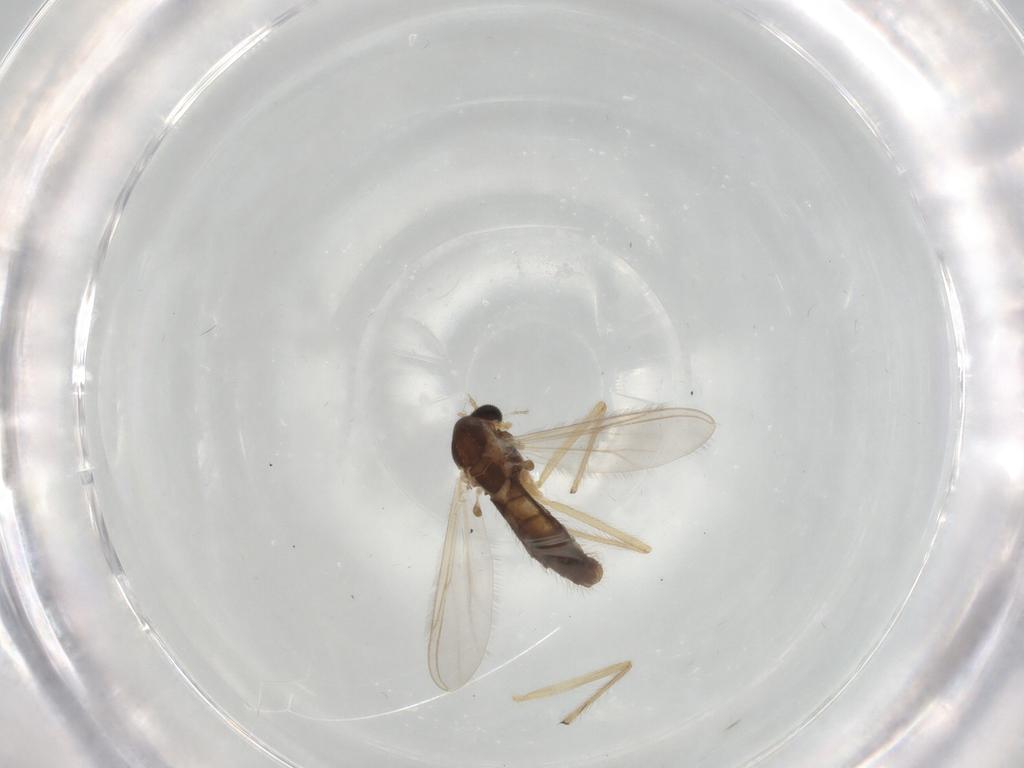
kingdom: Animalia
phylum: Arthropoda
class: Insecta
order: Diptera
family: Chironomidae
